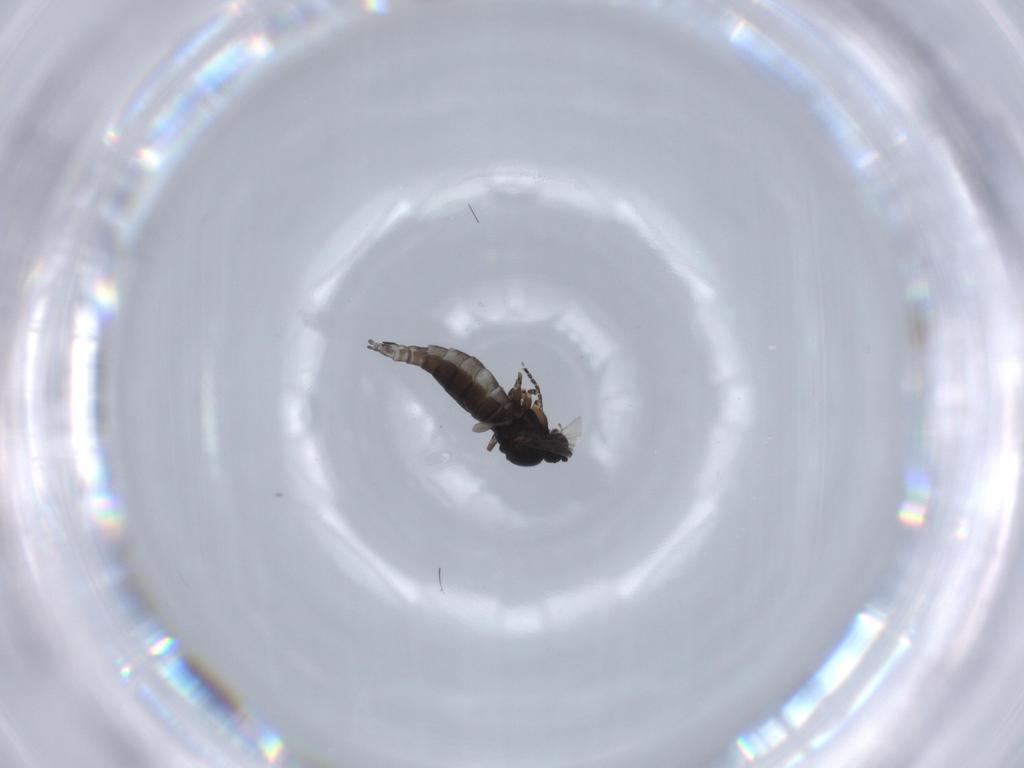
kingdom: Animalia
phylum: Arthropoda
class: Insecta
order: Diptera
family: Sciaridae
